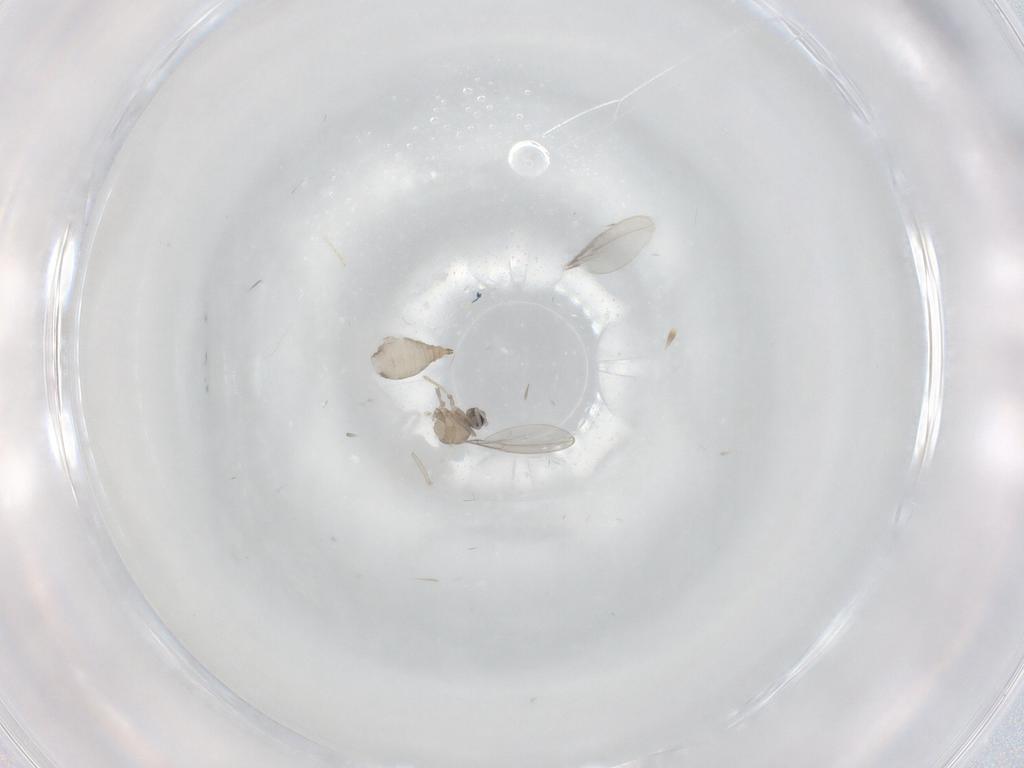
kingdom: Animalia
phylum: Arthropoda
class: Insecta
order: Diptera
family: Cecidomyiidae
